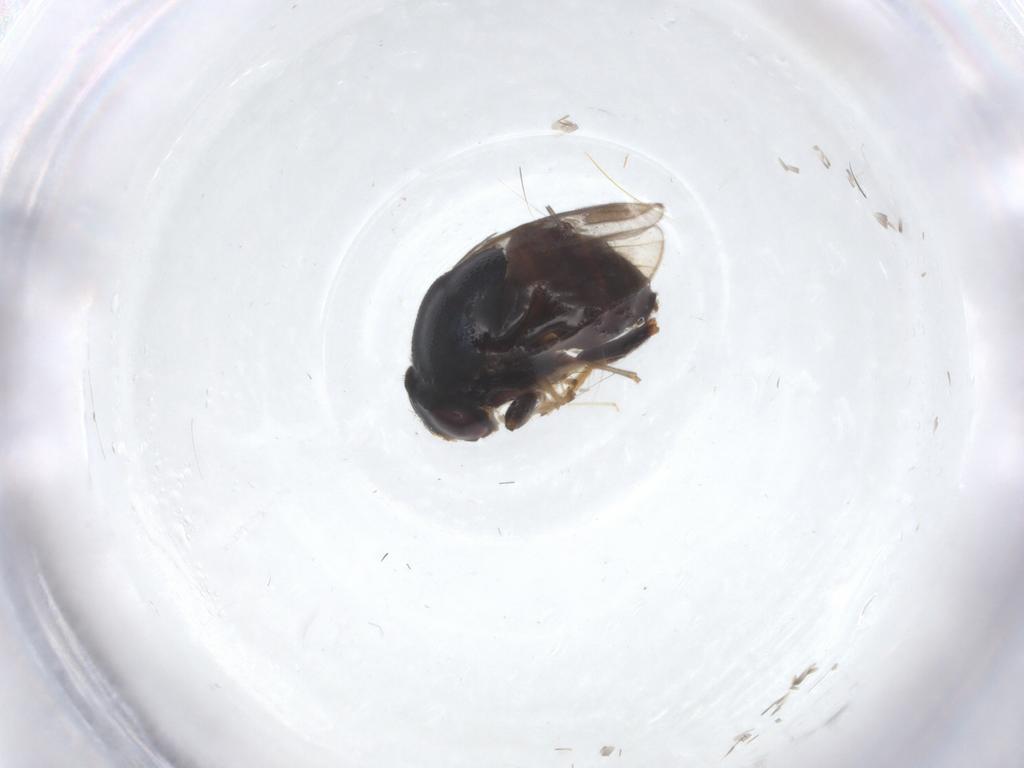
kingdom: Animalia
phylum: Arthropoda
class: Insecta
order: Diptera
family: Chloropidae
